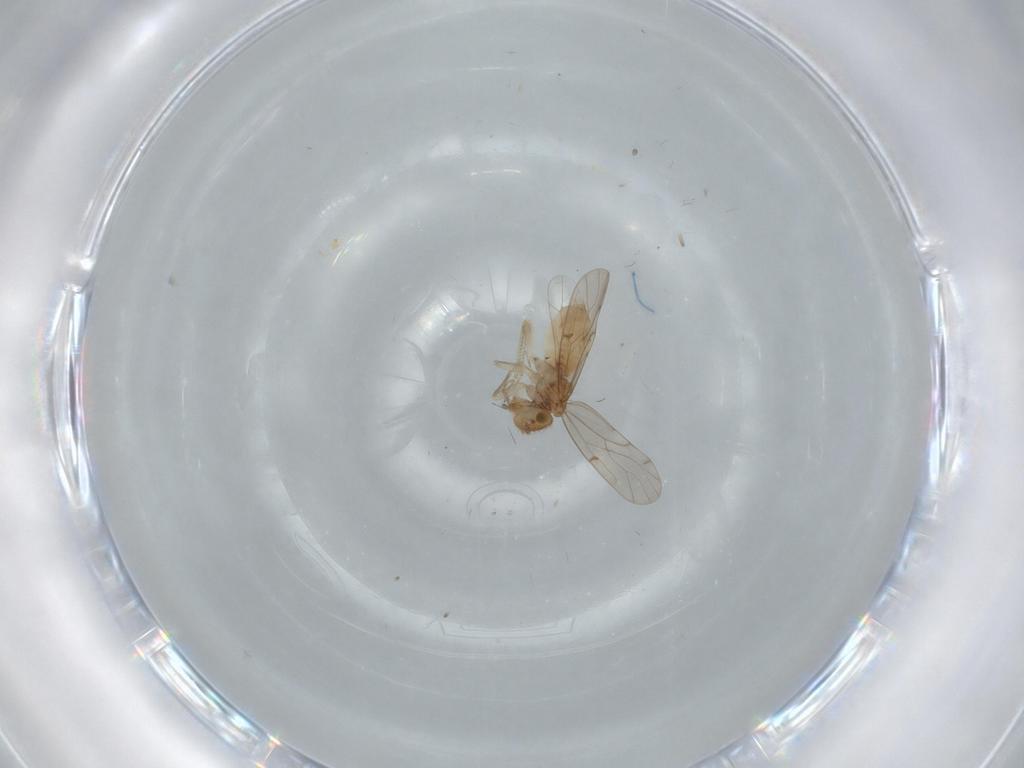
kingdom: Animalia
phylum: Arthropoda
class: Insecta
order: Psocodea
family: Lepidopsocidae
